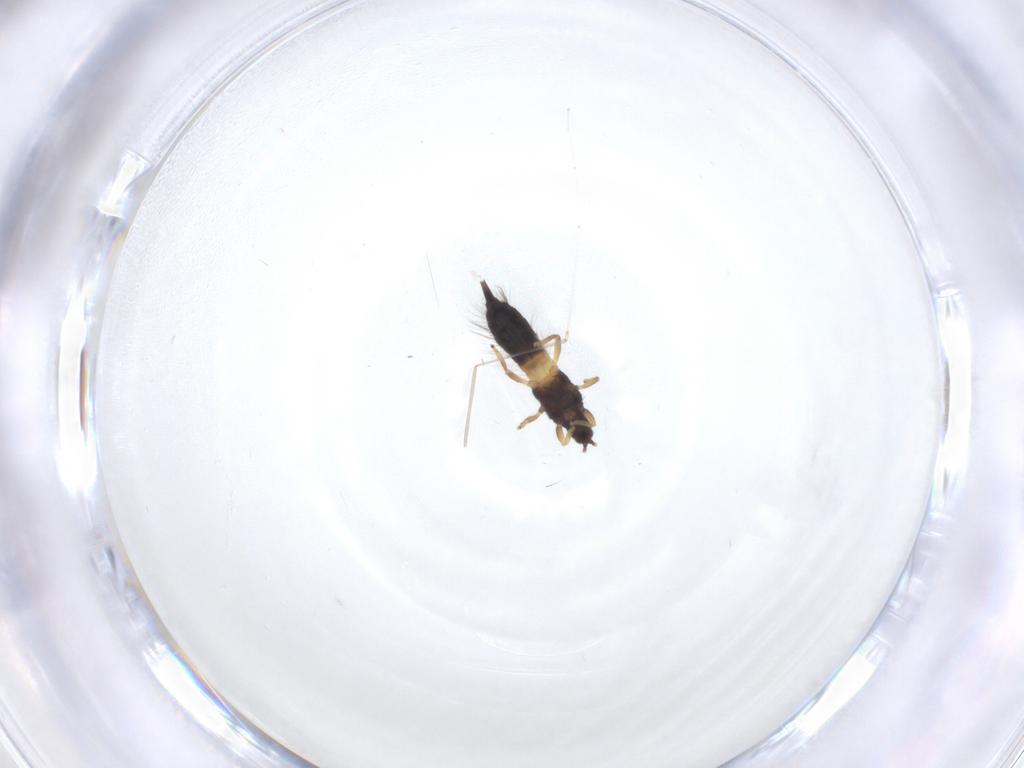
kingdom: Animalia
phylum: Arthropoda
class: Insecta
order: Thysanoptera
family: Phlaeothripidae
